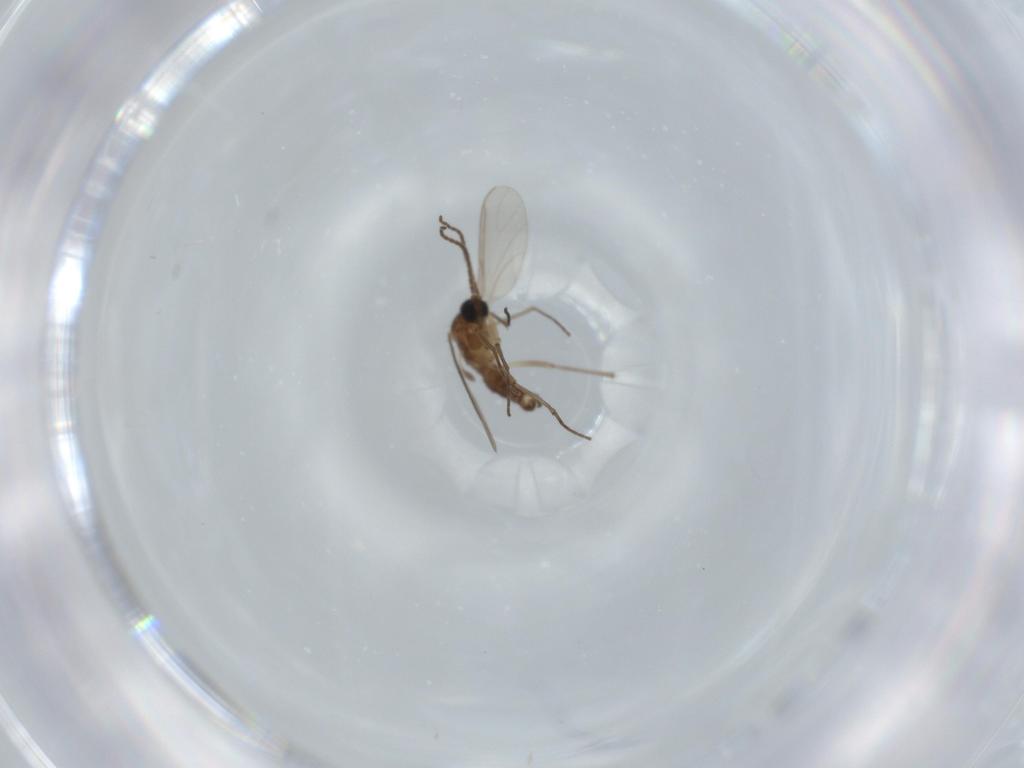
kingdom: Animalia
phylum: Arthropoda
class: Insecta
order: Diptera
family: Sciaridae
